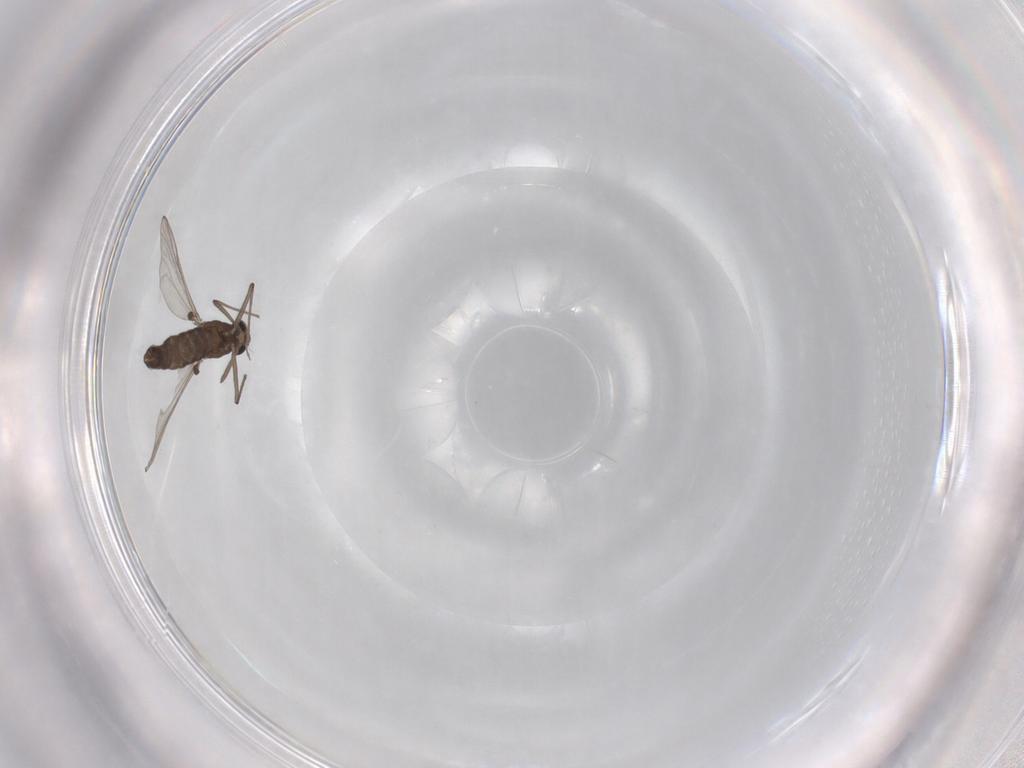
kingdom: Animalia
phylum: Arthropoda
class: Insecta
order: Diptera
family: Chironomidae
